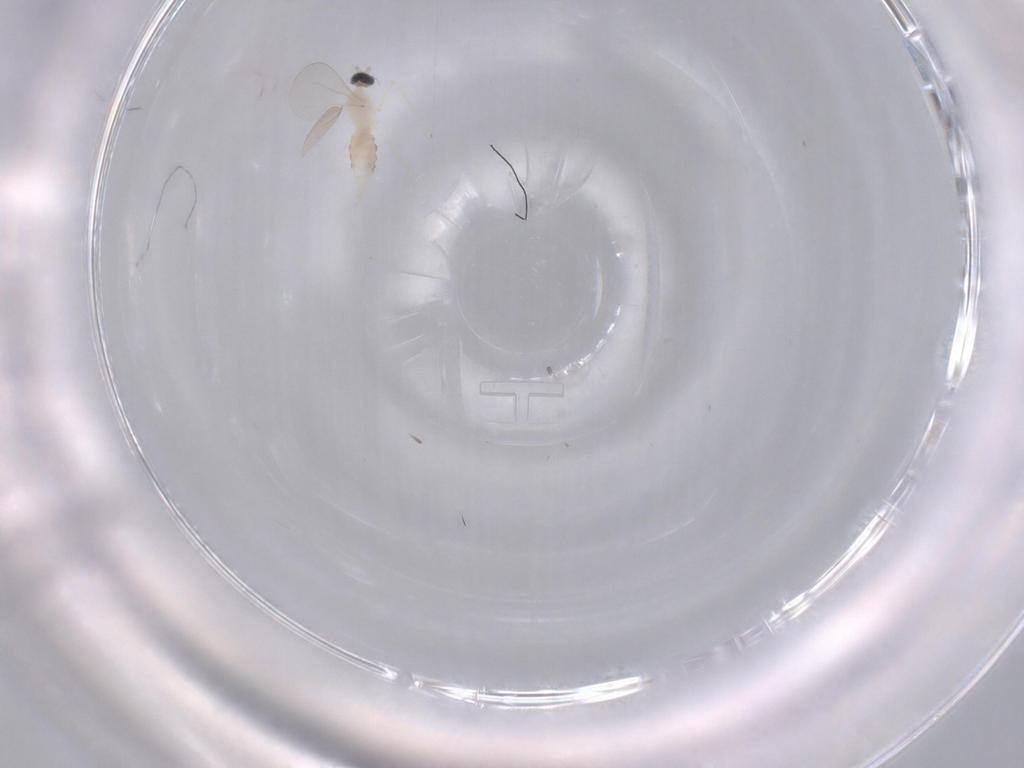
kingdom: Animalia
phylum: Arthropoda
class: Insecta
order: Diptera
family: Cecidomyiidae
